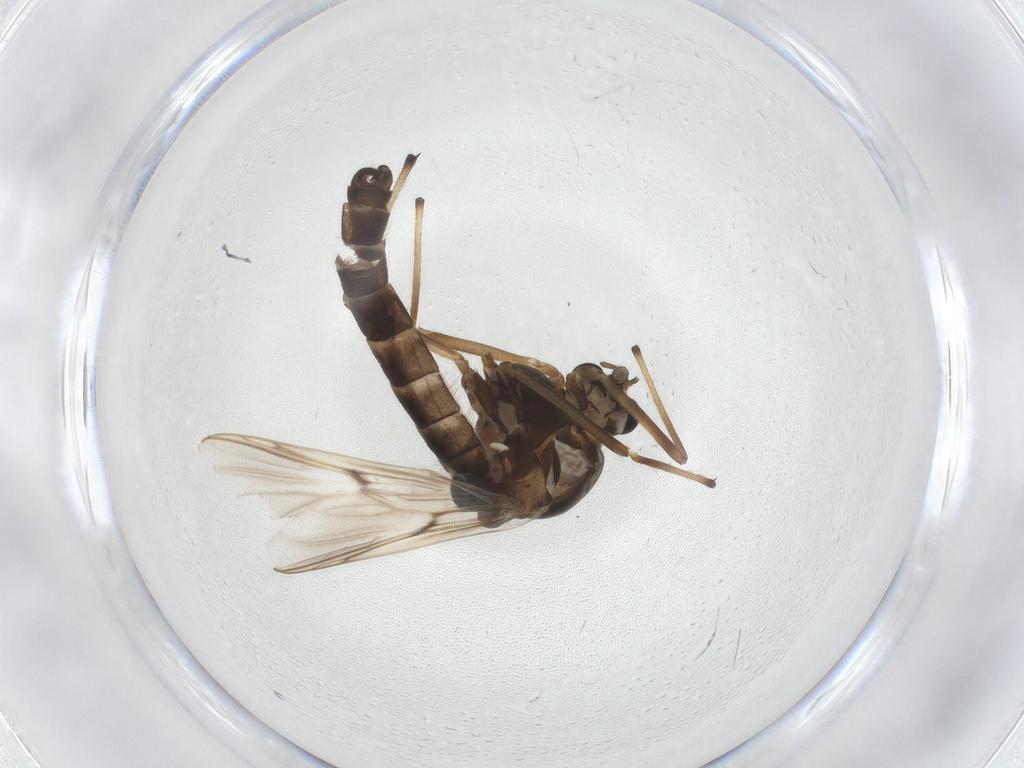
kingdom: Animalia
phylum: Arthropoda
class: Insecta
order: Diptera
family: Chironomidae
